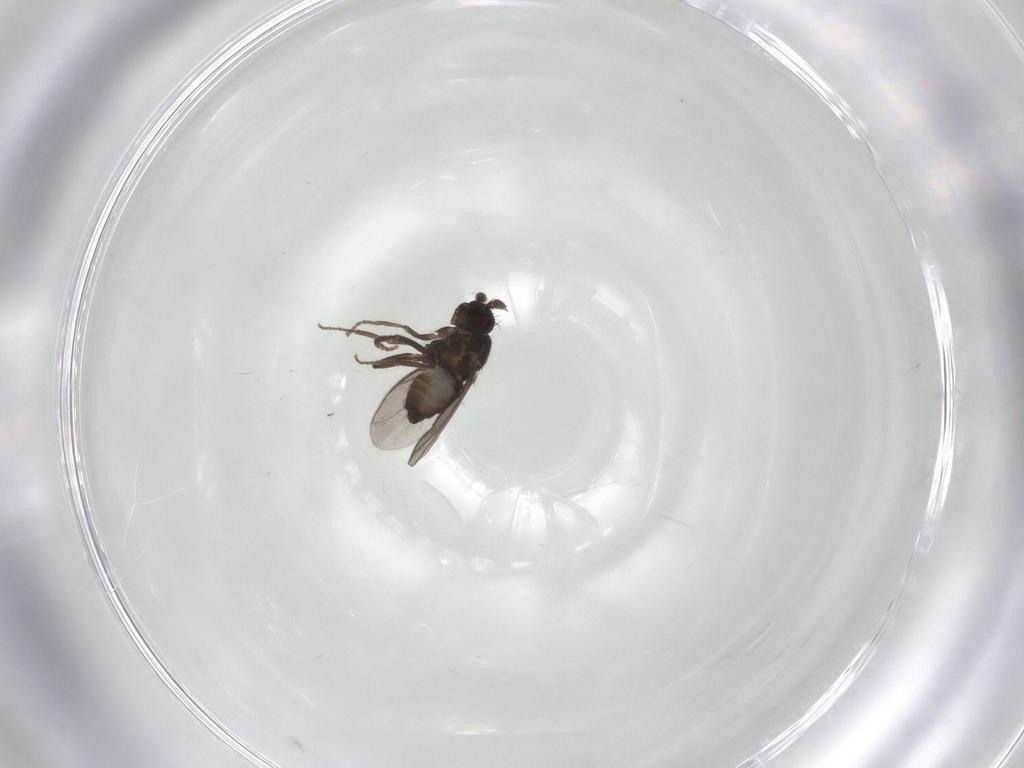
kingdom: Animalia
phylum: Arthropoda
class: Insecta
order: Diptera
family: Sphaeroceridae
